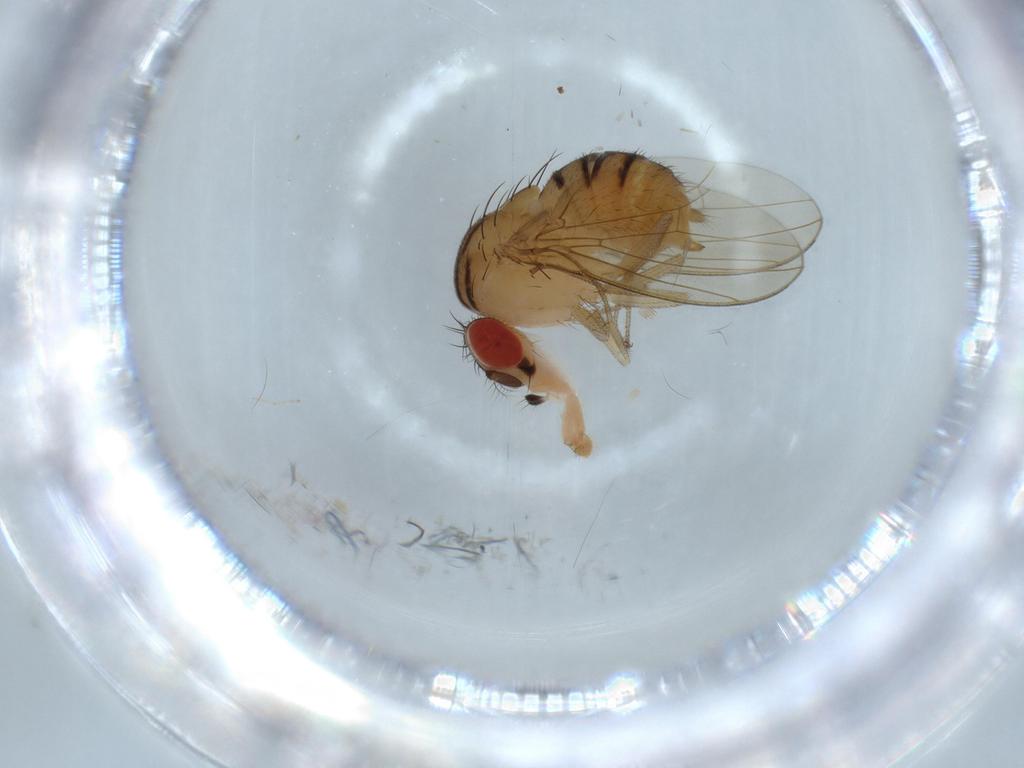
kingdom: Animalia
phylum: Arthropoda
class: Insecta
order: Diptera
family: Drosophilidae
